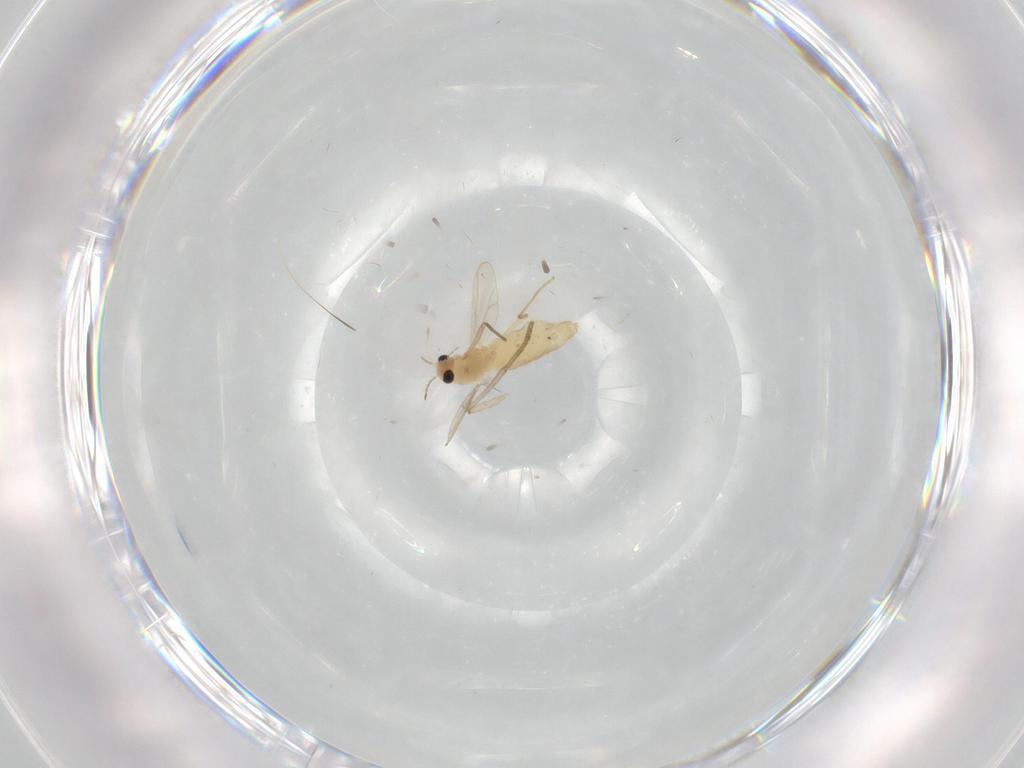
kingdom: Animalia
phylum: Arthropoda
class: Insecta
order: Diptera
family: Chironomidae
